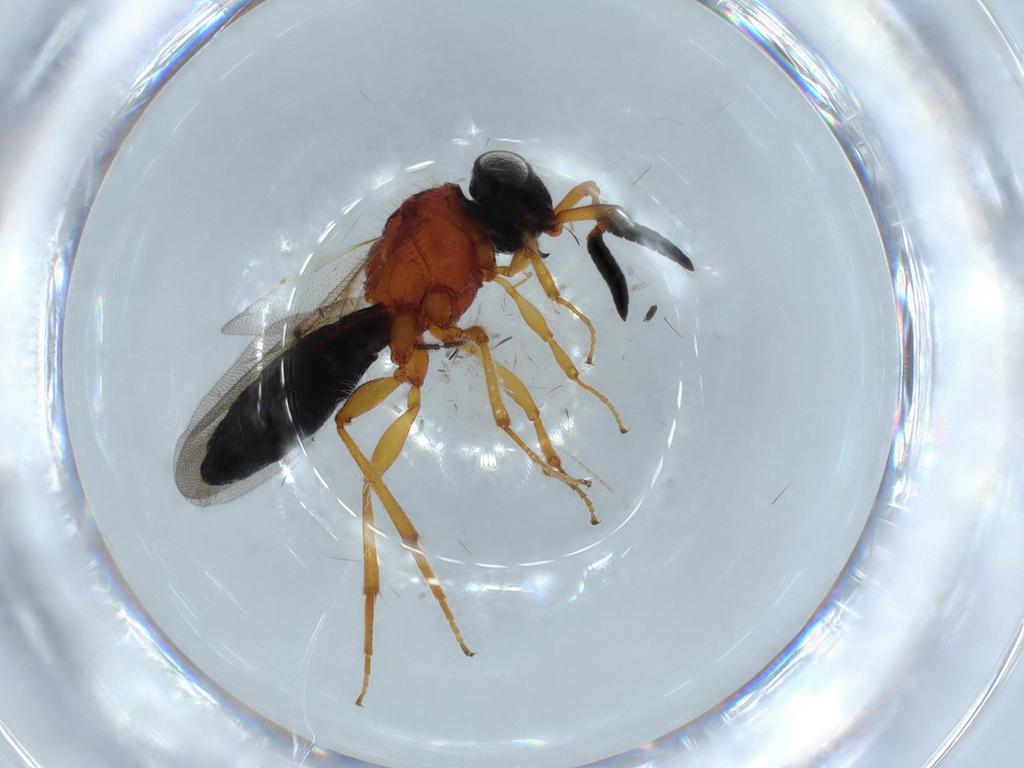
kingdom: Animalia
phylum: Arthropoda
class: Insecta
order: Hymenoptera
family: Scelionidae
